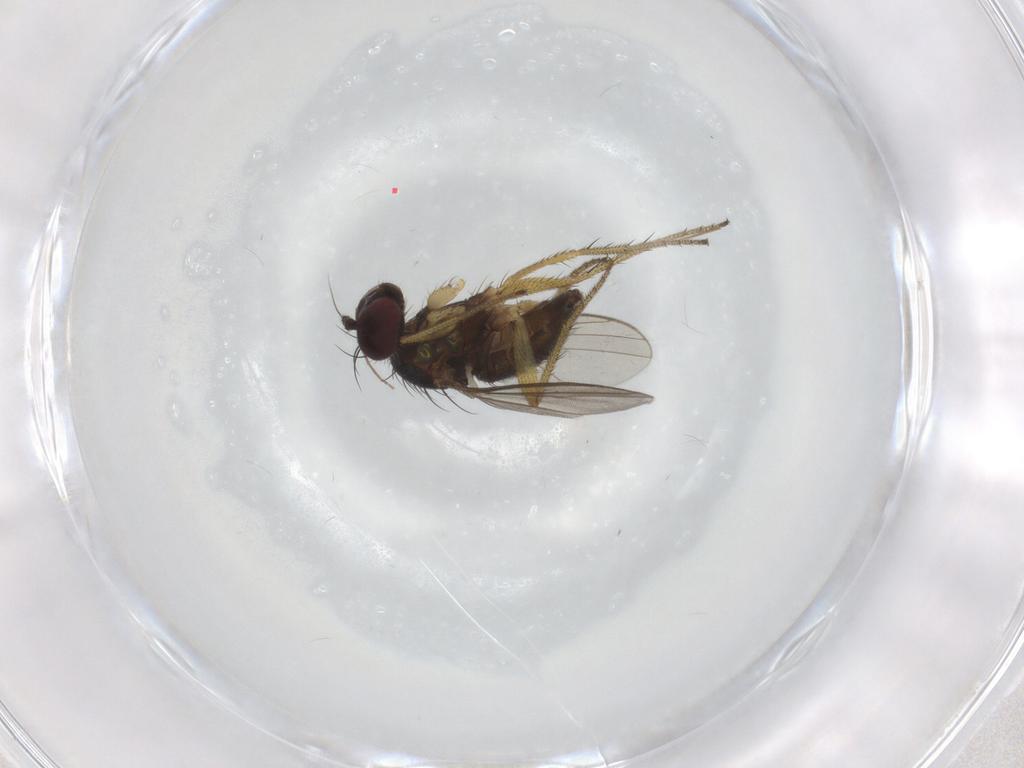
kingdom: Animalia
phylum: Arthropoda
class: Insecta
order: Diptera
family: Dolichopodidae
